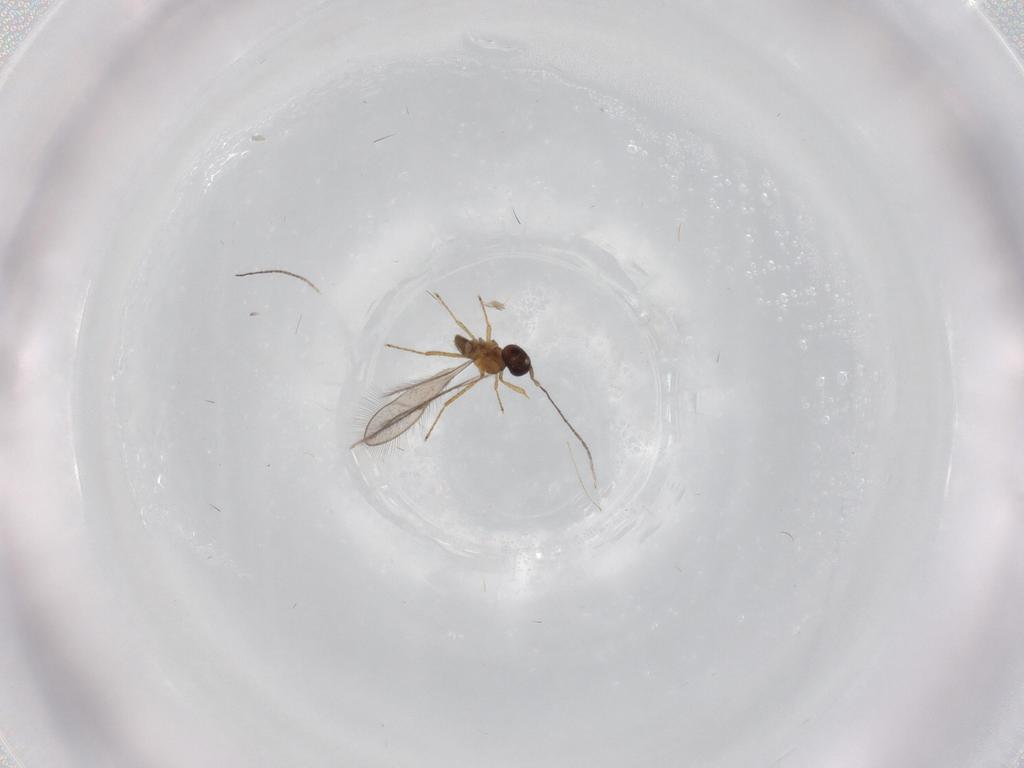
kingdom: Animalia
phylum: Arthropoda
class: Insecta
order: Hymenoptera
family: Mymaridae
